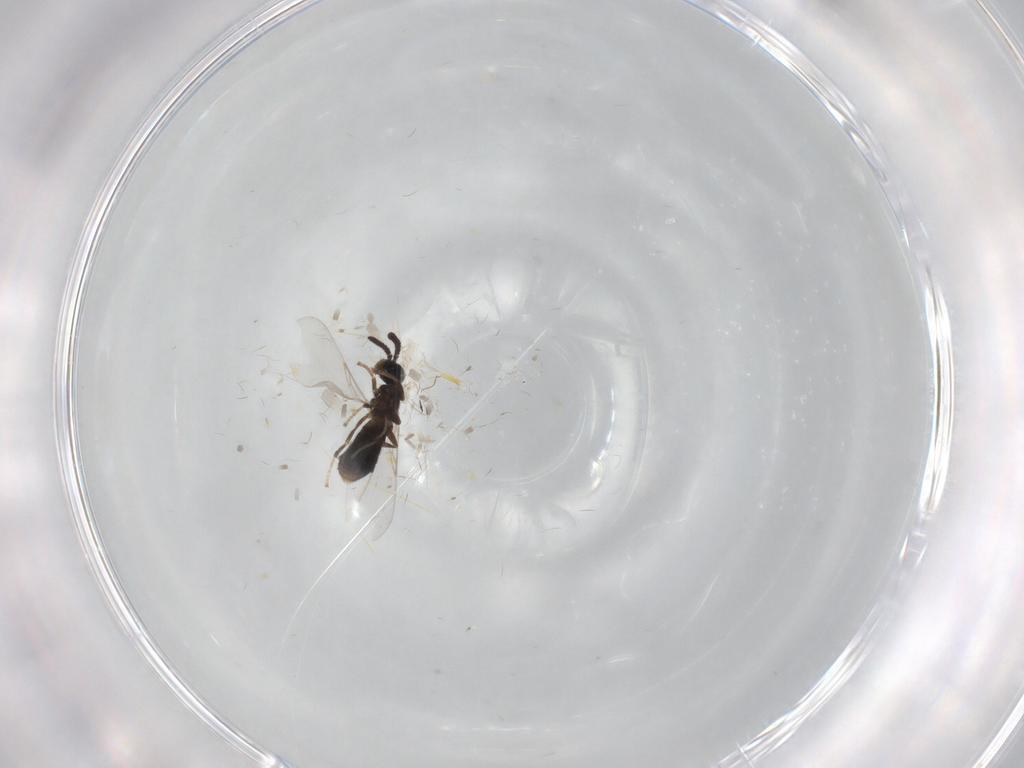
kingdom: Animalia
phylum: Arthropoda
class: Insecta
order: Diptera
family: Scatopsidae
